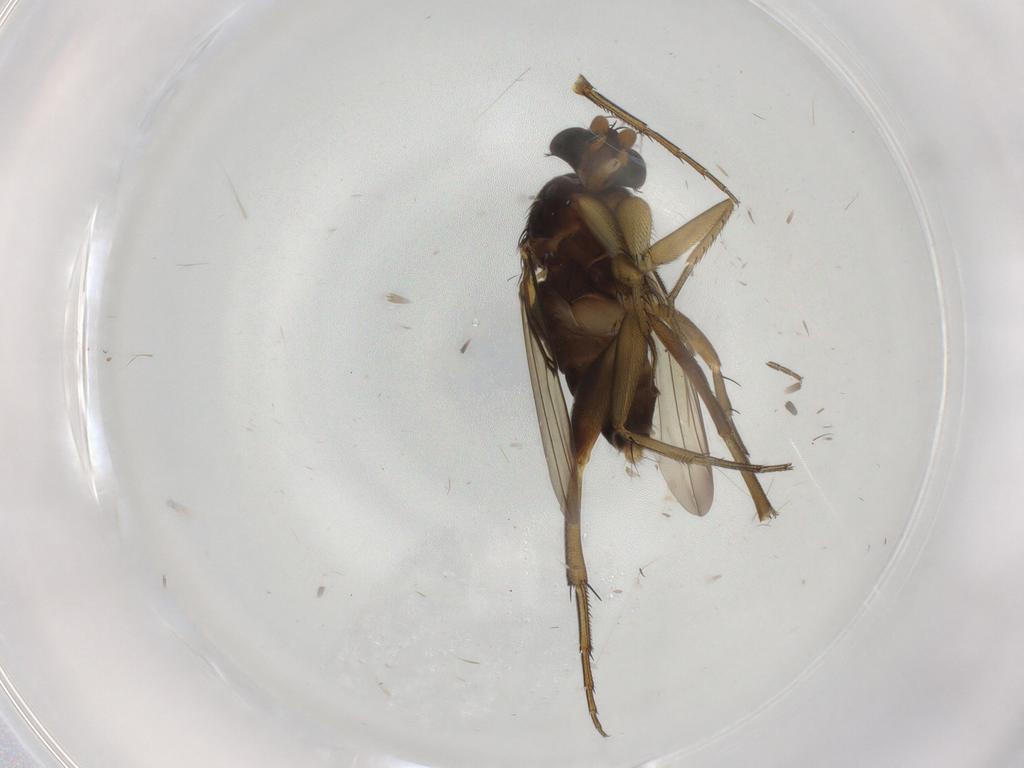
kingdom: Animalia
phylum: Arthropoda
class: Insecta
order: Diptera
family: Phoridae
